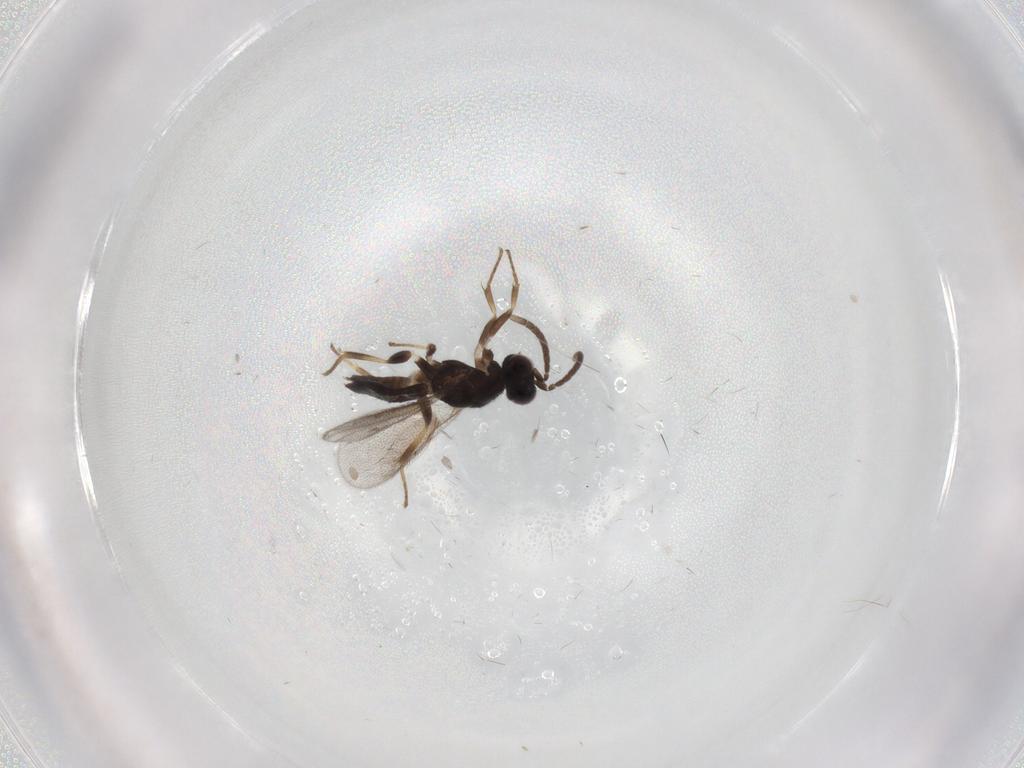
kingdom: Animalia
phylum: Arthropoda
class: Insecta
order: Hymenoptera
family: Eupelmidae
